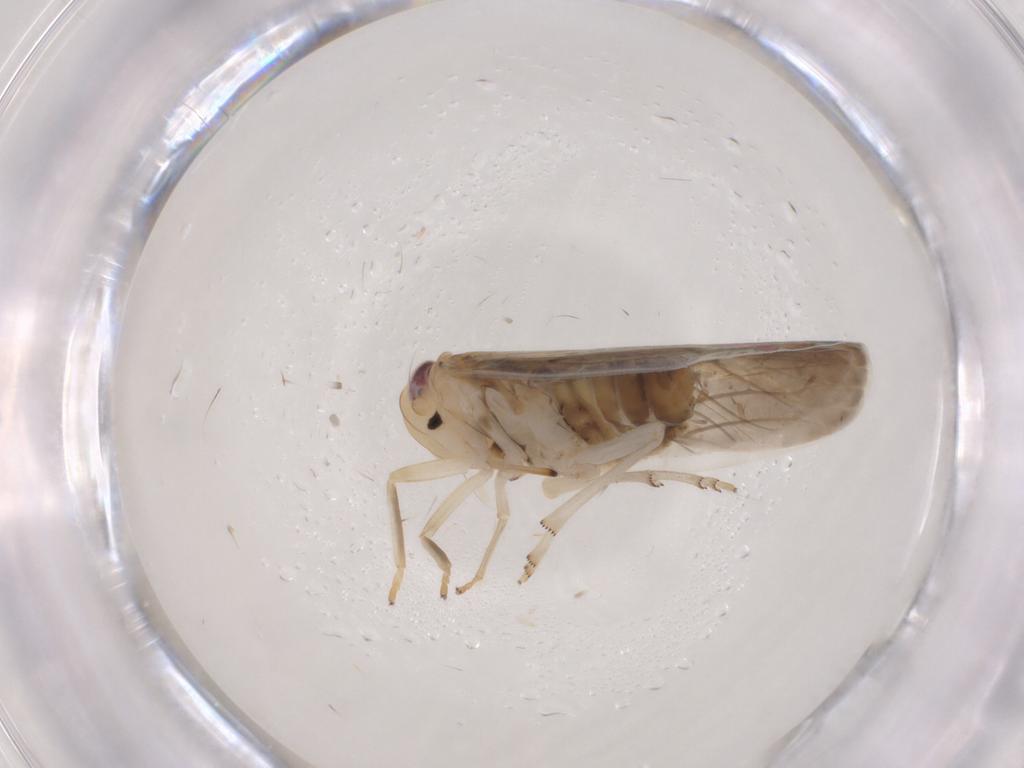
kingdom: Animalia
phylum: Arthropoda
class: Insecta
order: Hemiptera
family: Achilidae
